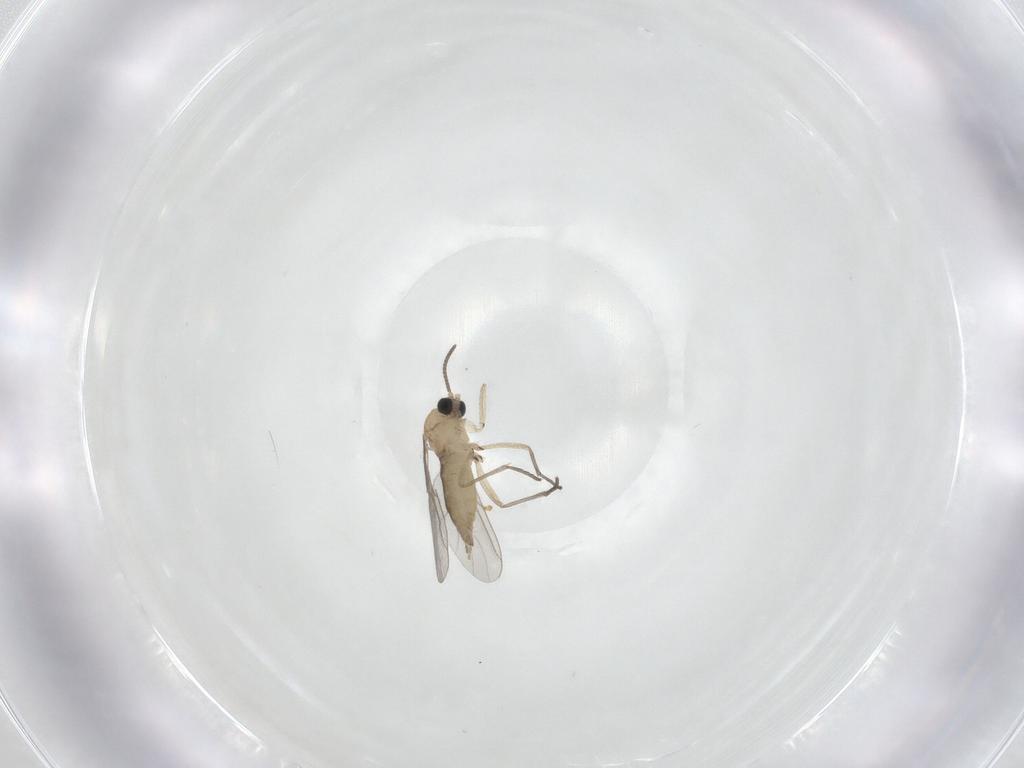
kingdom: Animalia
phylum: Arthropoda
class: Insecta
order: Diptera
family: Sciaridae
